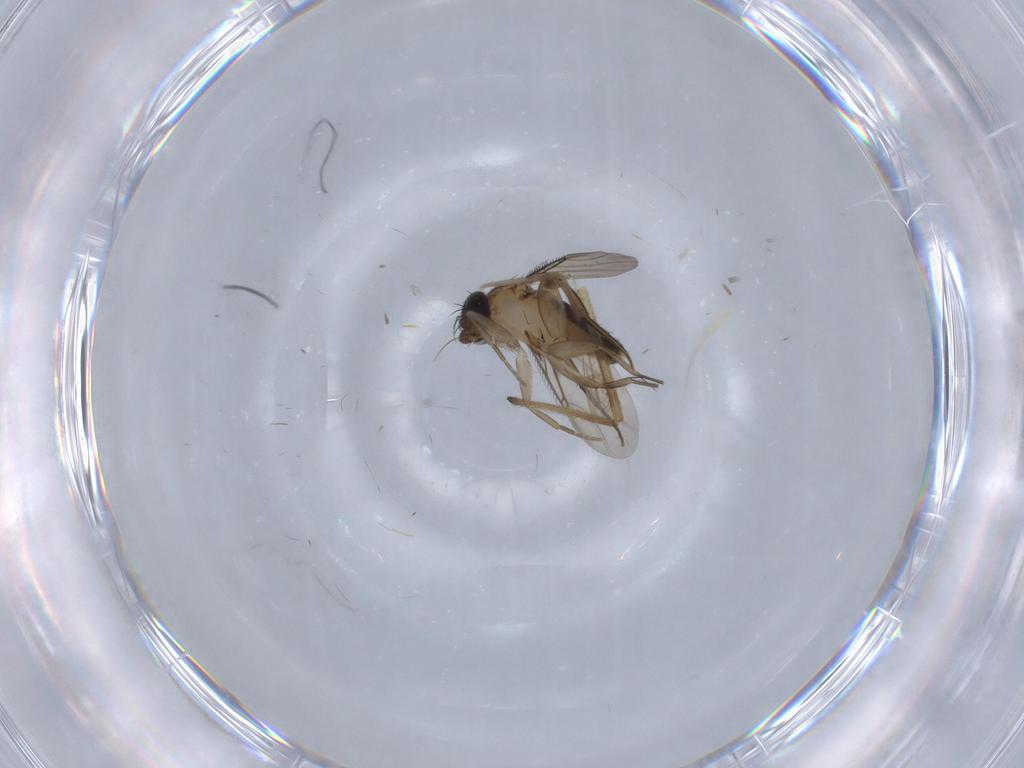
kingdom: Animalia
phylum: Arthropoda
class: Insecta
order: Diptera
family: Phoridae
